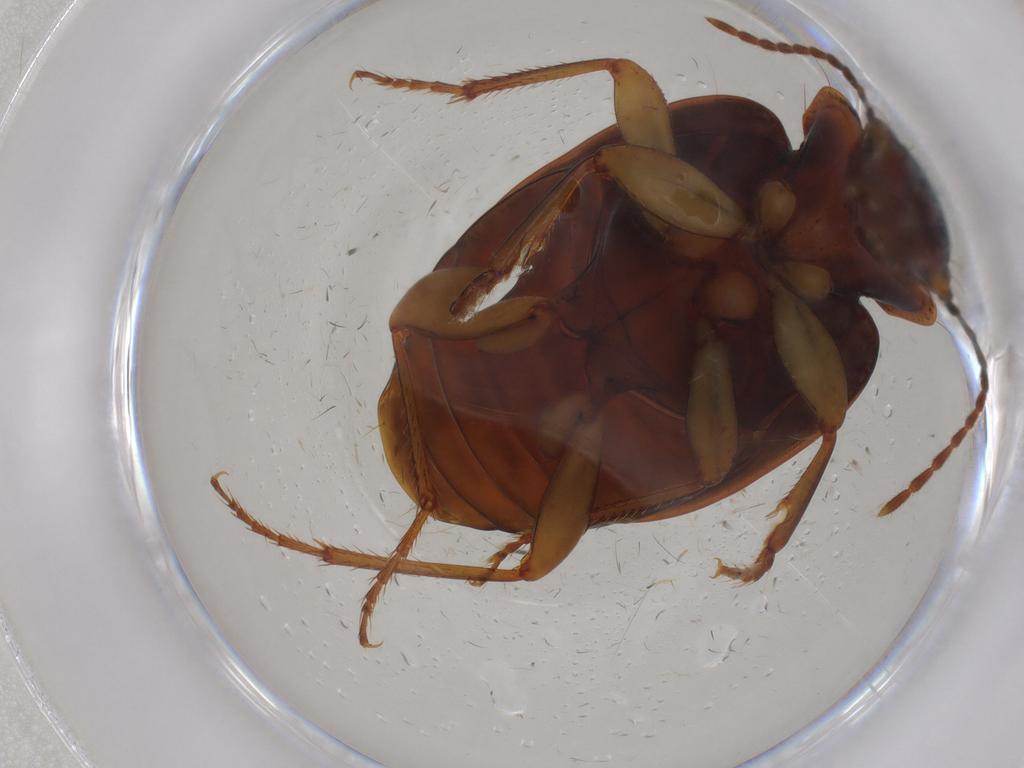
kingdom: Animalia
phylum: Arthropoda
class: Insecta
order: Coleoptera
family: Carabidae
